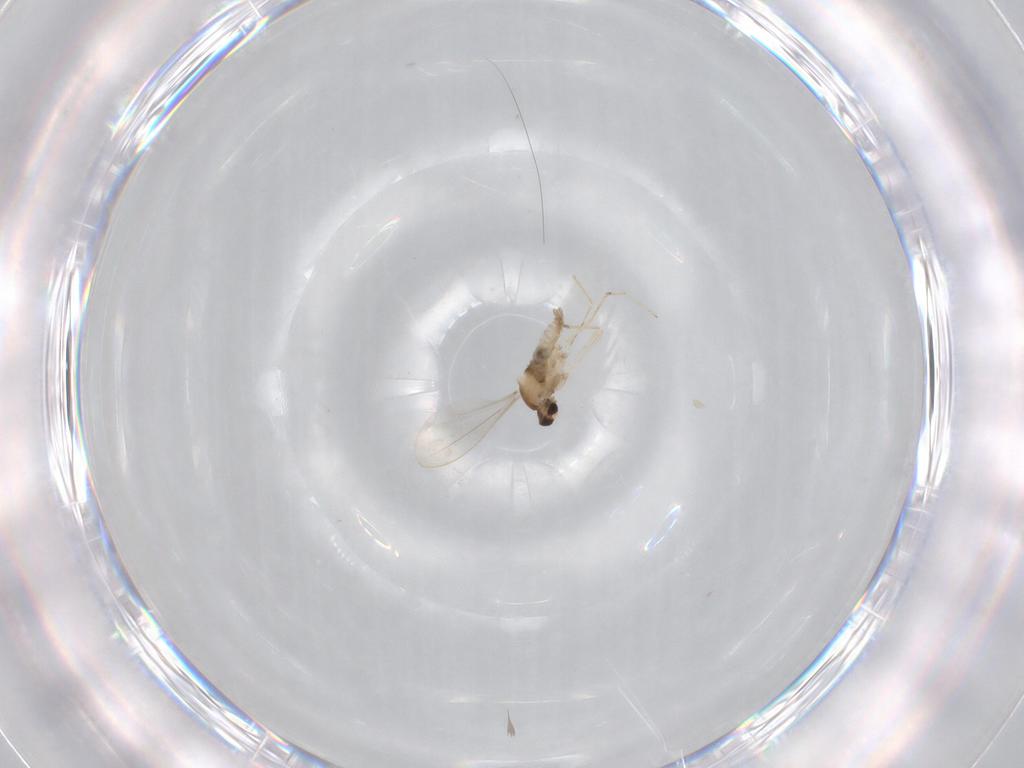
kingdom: Animalia
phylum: Arthropoda
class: Insecta
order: Diptera
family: Cecidomyiidae
